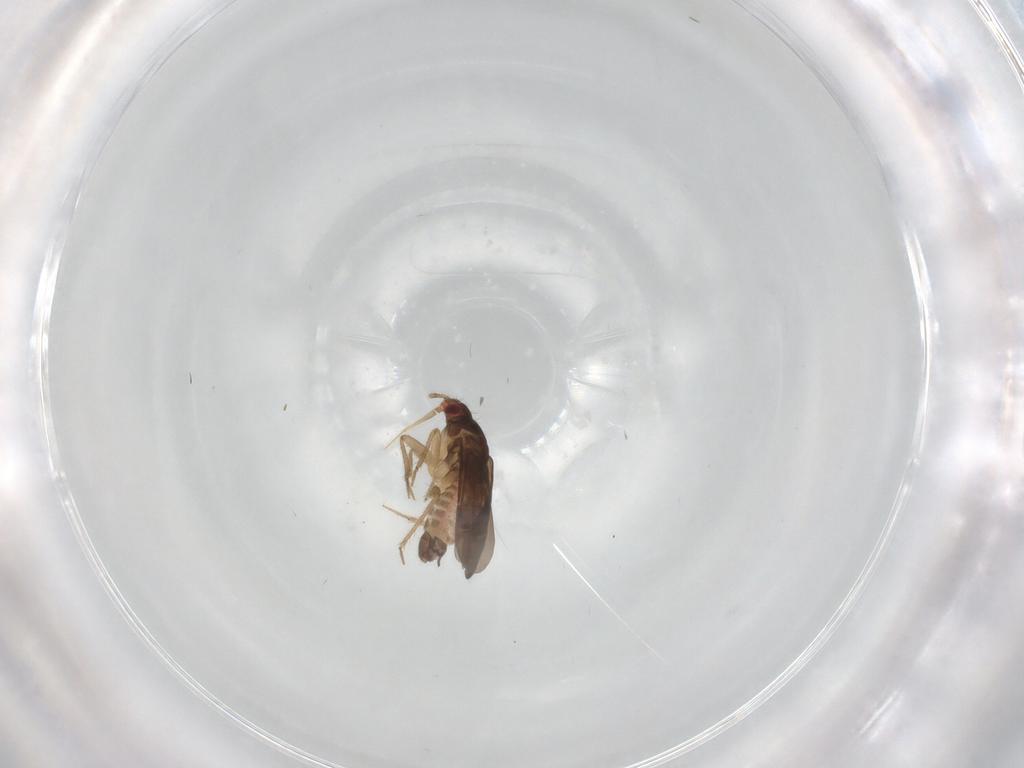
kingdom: Animalia
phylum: Arthropoda
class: Insecta
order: Hemiptera
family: Ceratocombidae
